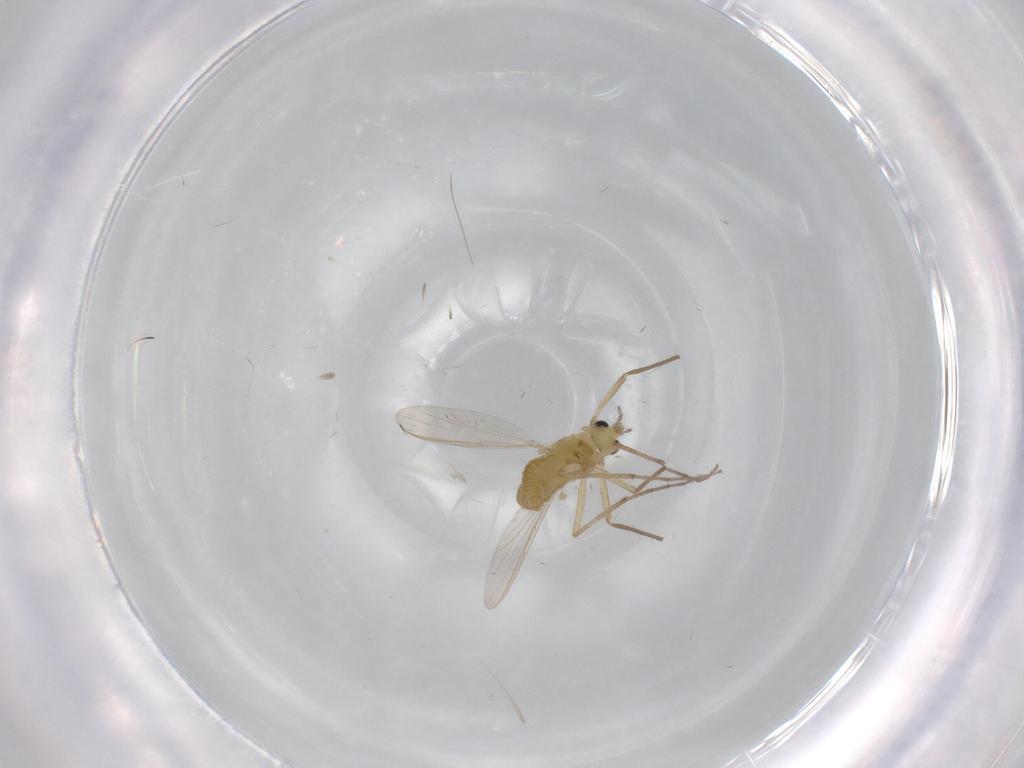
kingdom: Animalia
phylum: Arthropoda
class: Insecta
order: Diptera
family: Chironomidae
